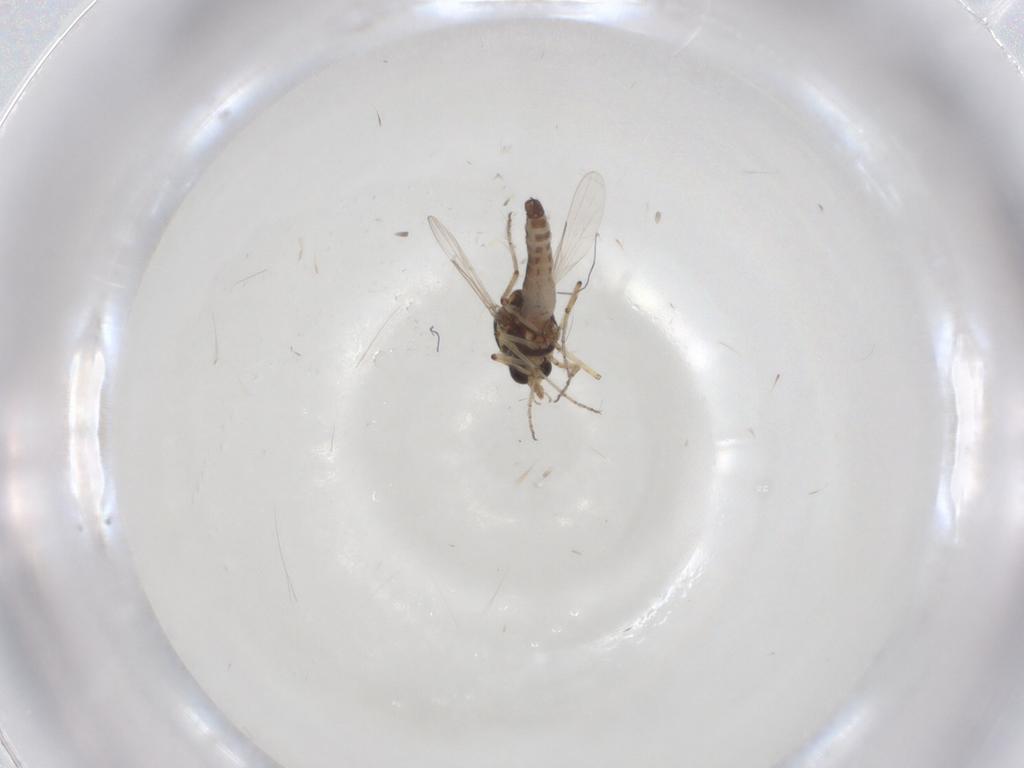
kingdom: Animalia
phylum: Arthropoda
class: Insecta
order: Diptera
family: Ceratopogonidae
